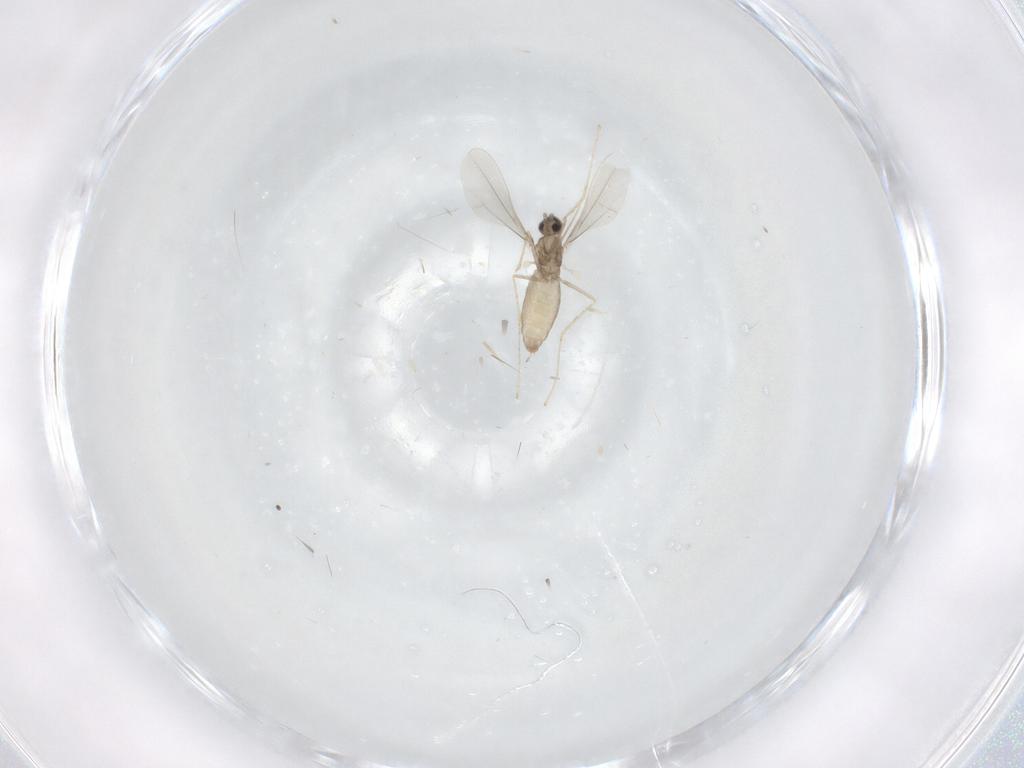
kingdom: Animalia
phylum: Arthropoda
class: Insecta
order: Diptera
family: Cecidomyiidae
